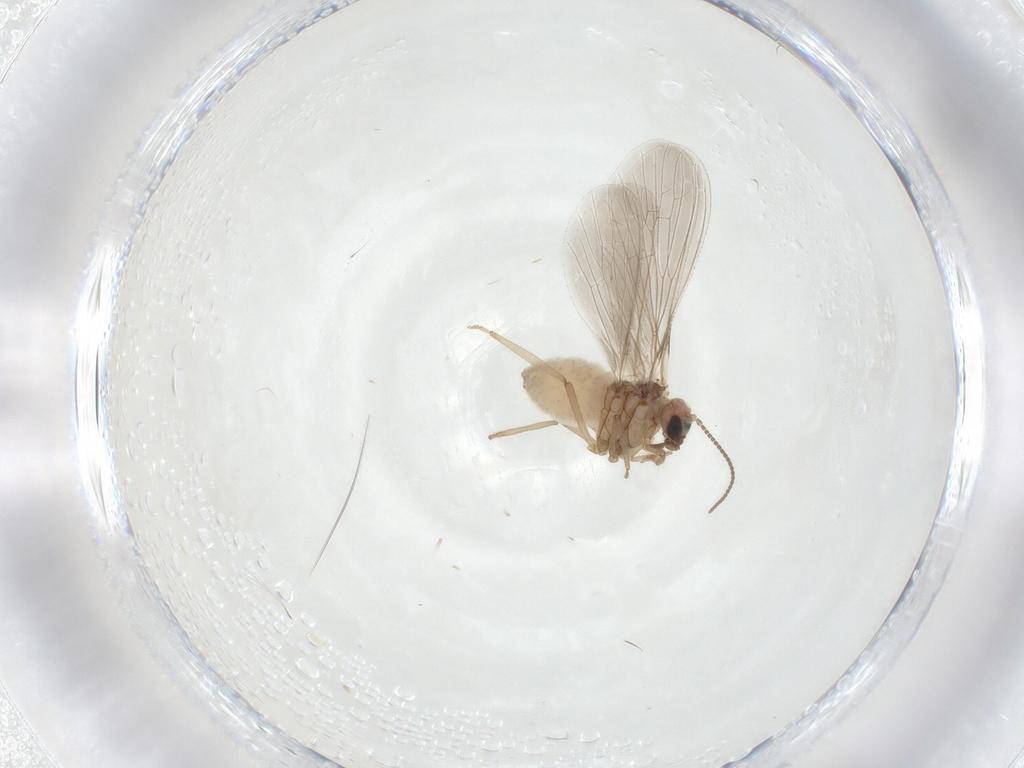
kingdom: Animalia
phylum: Arthropoda
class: Insecta
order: Neuroptera
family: Coniopterygidae
